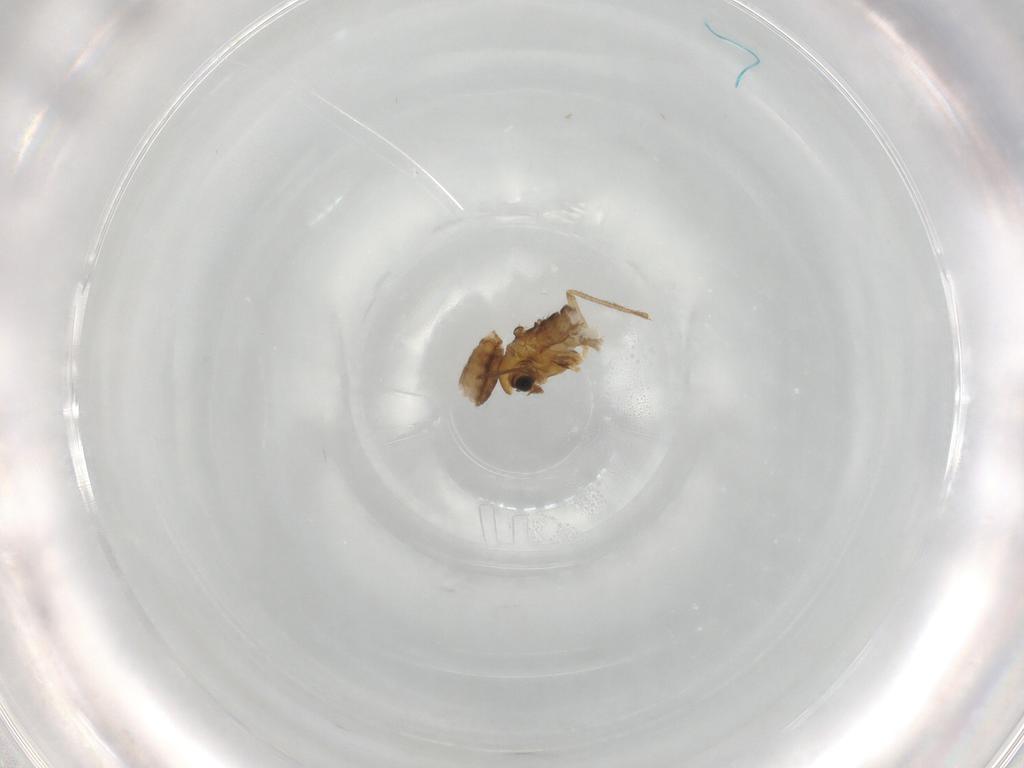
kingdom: Animalia
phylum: Arthropoda
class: Insecta
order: Diptera
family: Chironomidae
